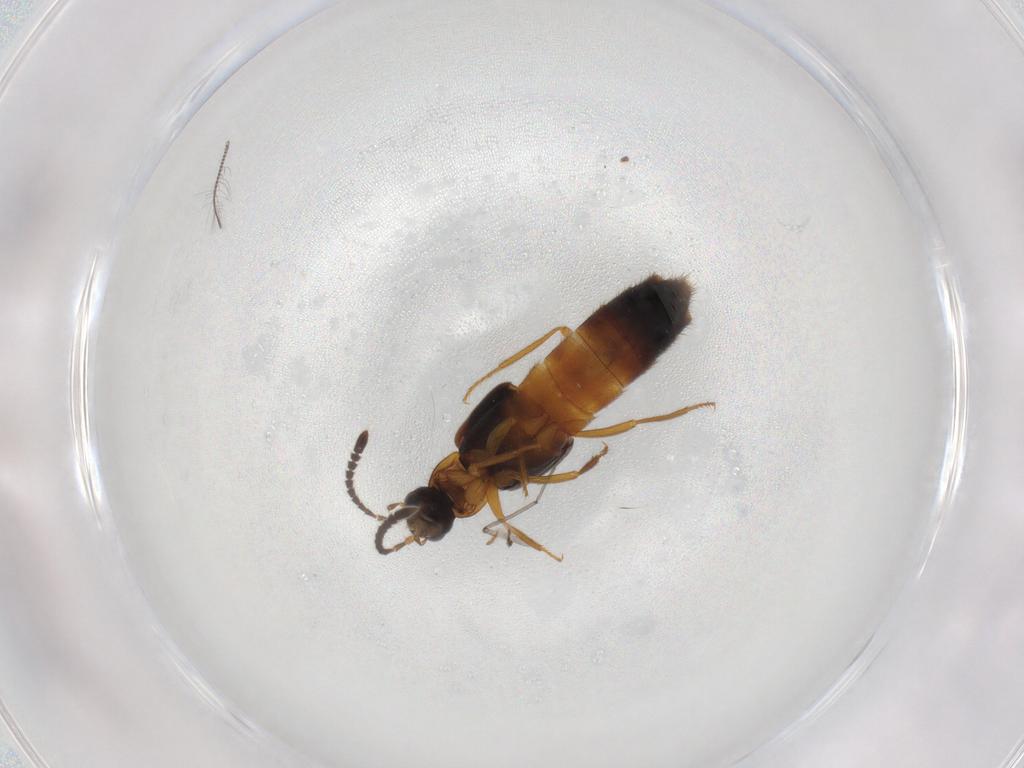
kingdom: Animalia
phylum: Arthropoda
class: Insecta
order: Coleoptera
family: Staphylinidae
